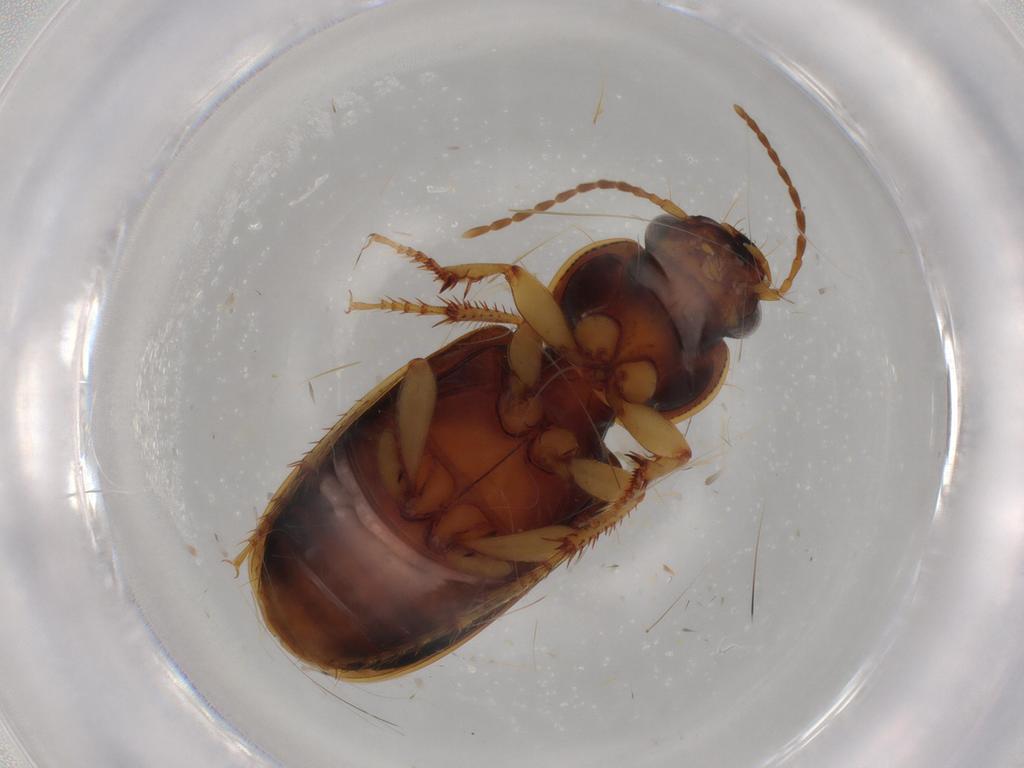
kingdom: Animalia
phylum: Arthropoda
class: Insecta
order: Coleoptera
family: Carabidae
